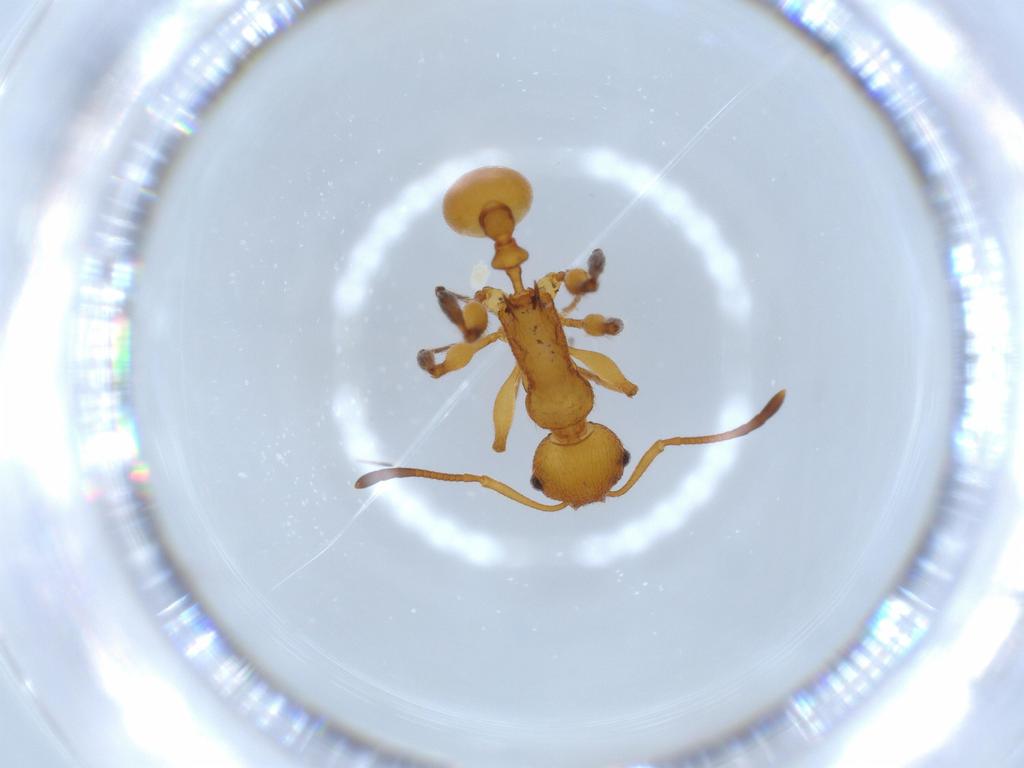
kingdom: Animalia
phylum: Arthropoda
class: Insecta
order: Hymenoptera
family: Formicidae
